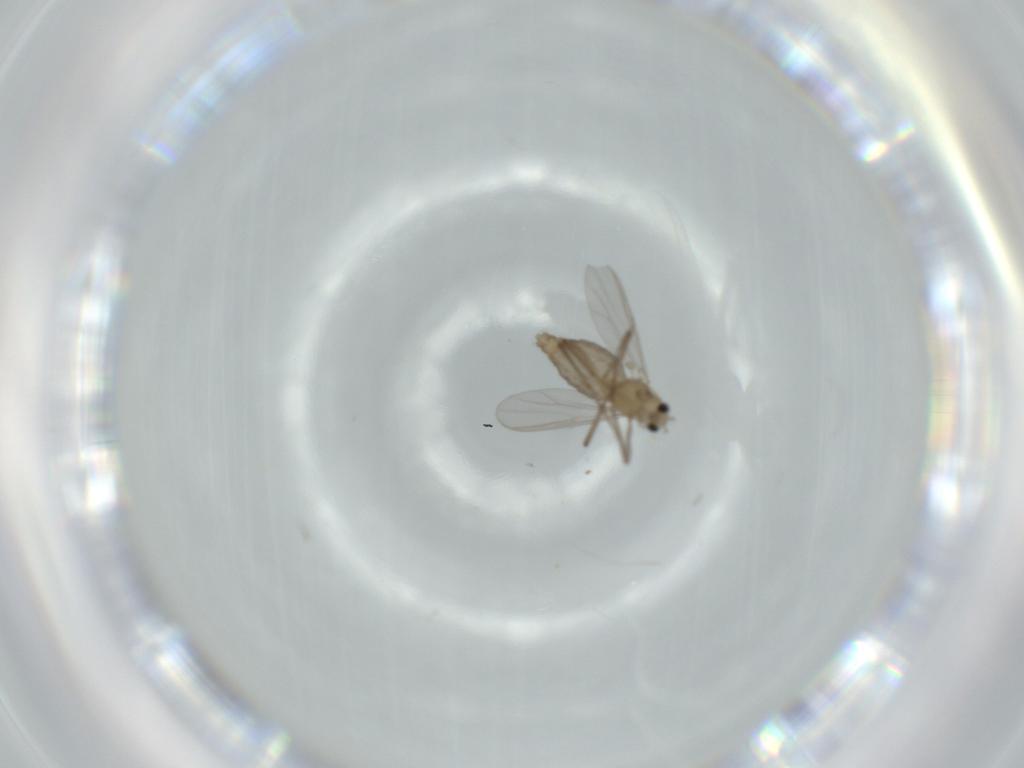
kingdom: Animalia
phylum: Arthropoda
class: Insecta
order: Diptera
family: Chironomidae
